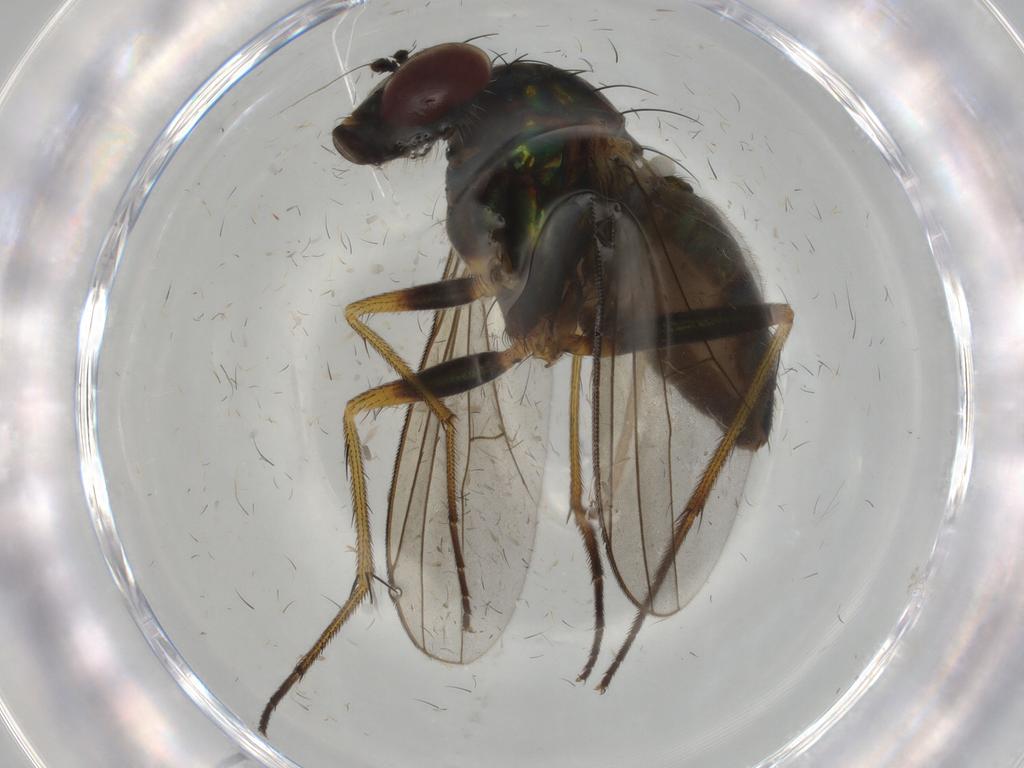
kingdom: Animalia
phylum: Arthropoda
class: Insecta
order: Diptera
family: Dolichopodidae
